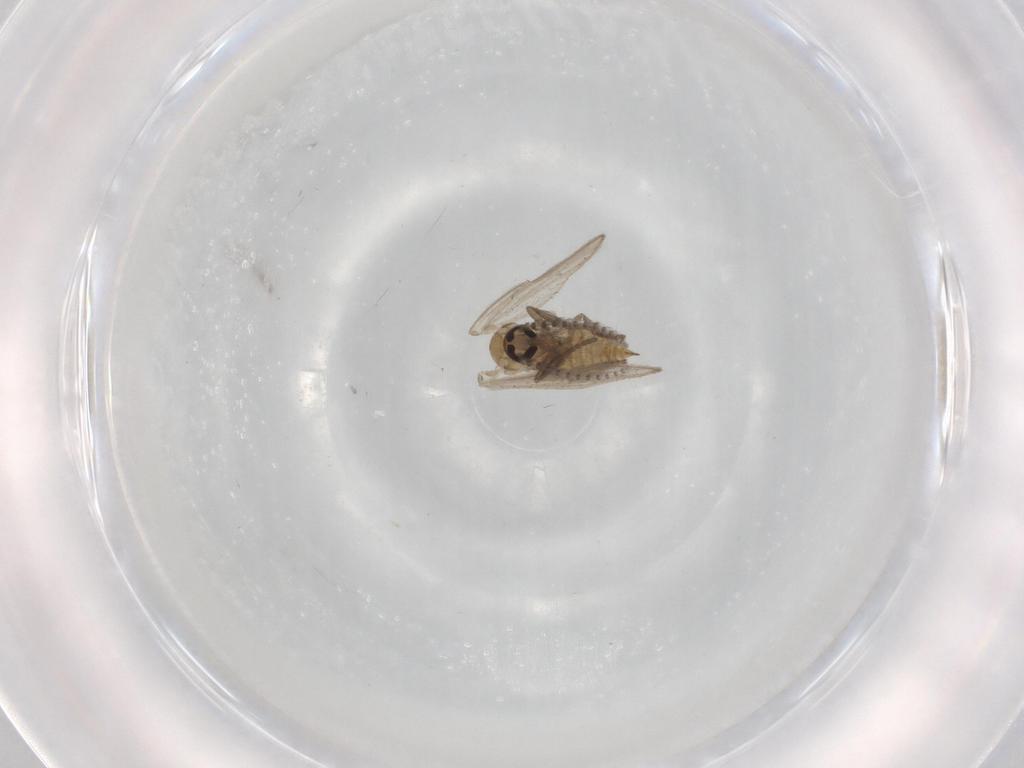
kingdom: Animalia
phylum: Arthropoda
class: Insecta
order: Diptera
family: Psychodidae
